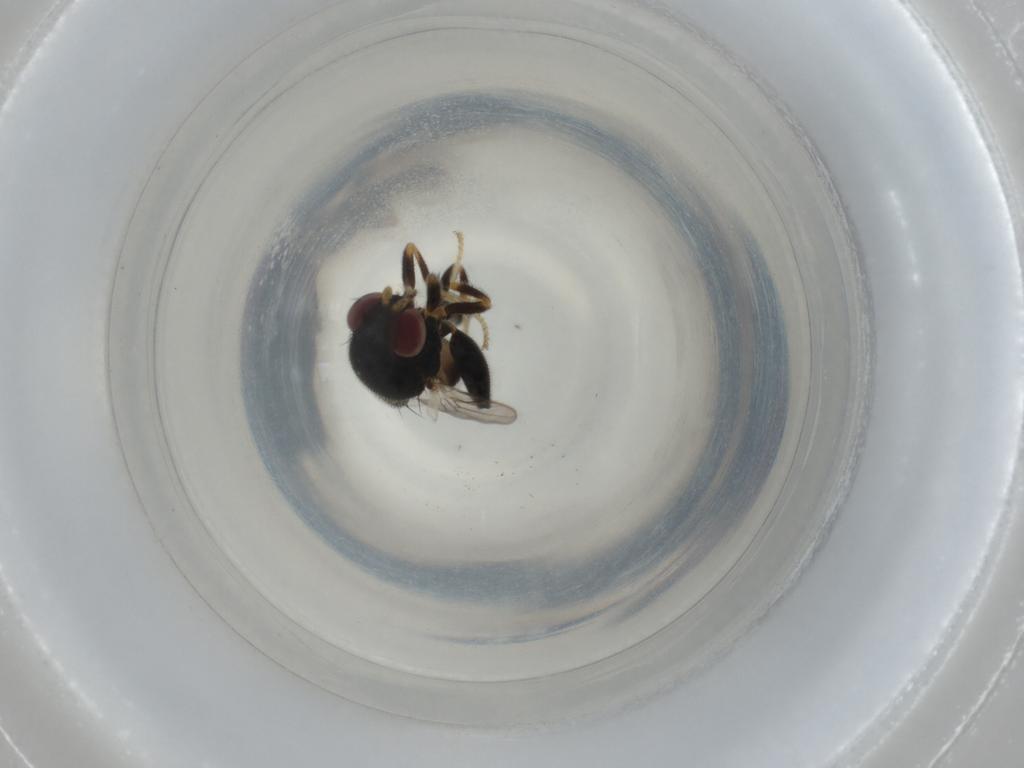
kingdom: Animalia
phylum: Arthropoda
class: Insecta
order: Diptera
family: Chloropidae
